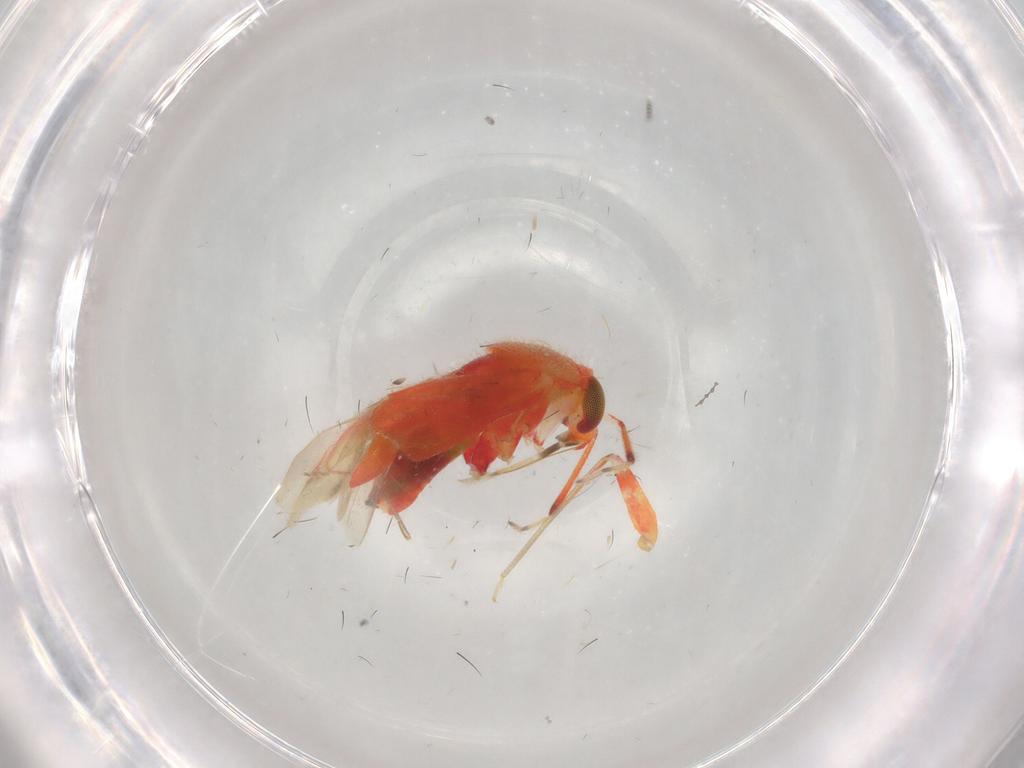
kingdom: Animalia
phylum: Arthropoda
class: Insecta
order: Hemiptera
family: Miridae
